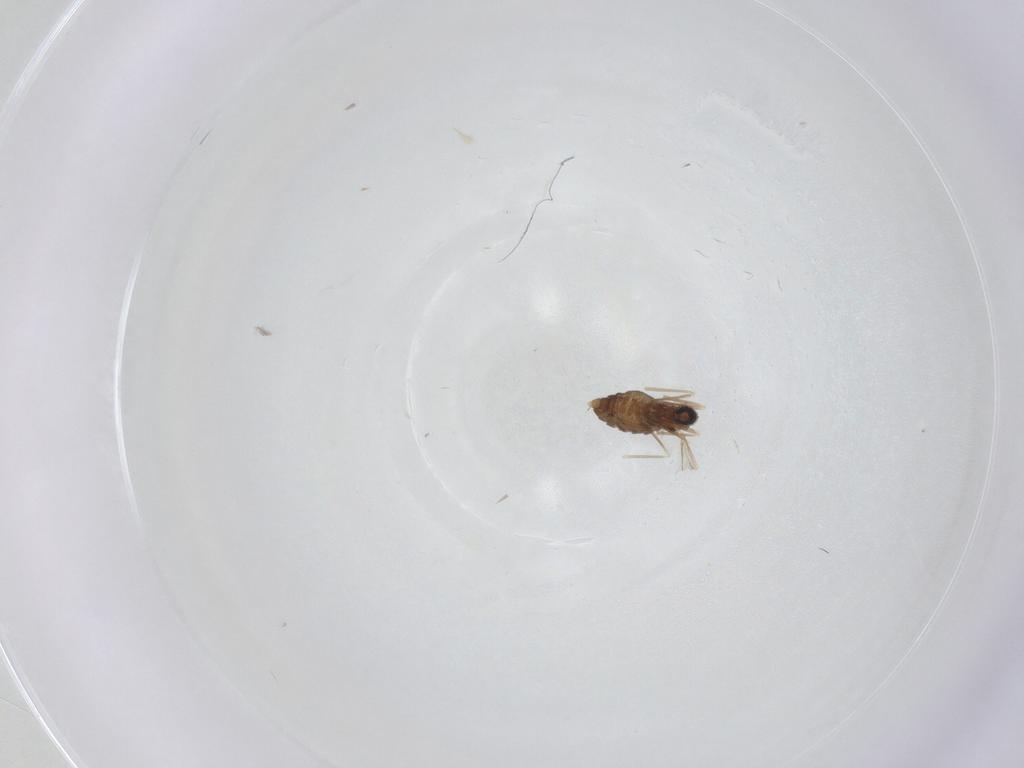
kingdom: Animalia
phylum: Arthropoda
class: Insecta
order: Diptera
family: Cecidomyiidae
